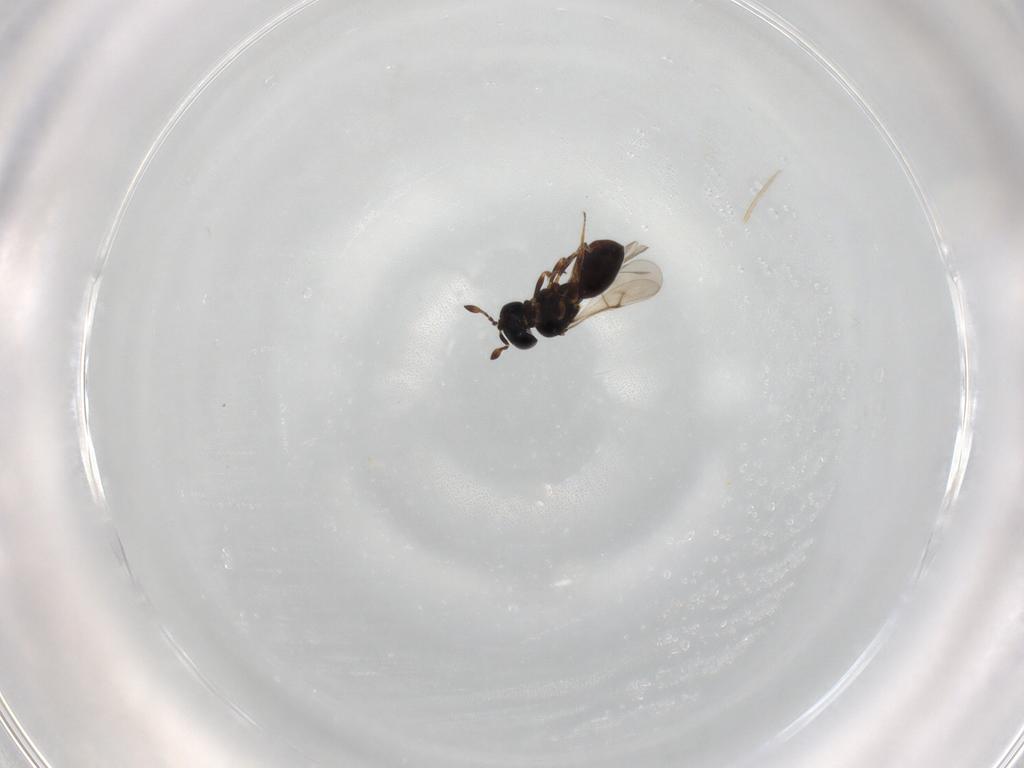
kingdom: Animalia
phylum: Arthropoda
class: Insecta
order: Hymenoptera
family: Scelionidae
